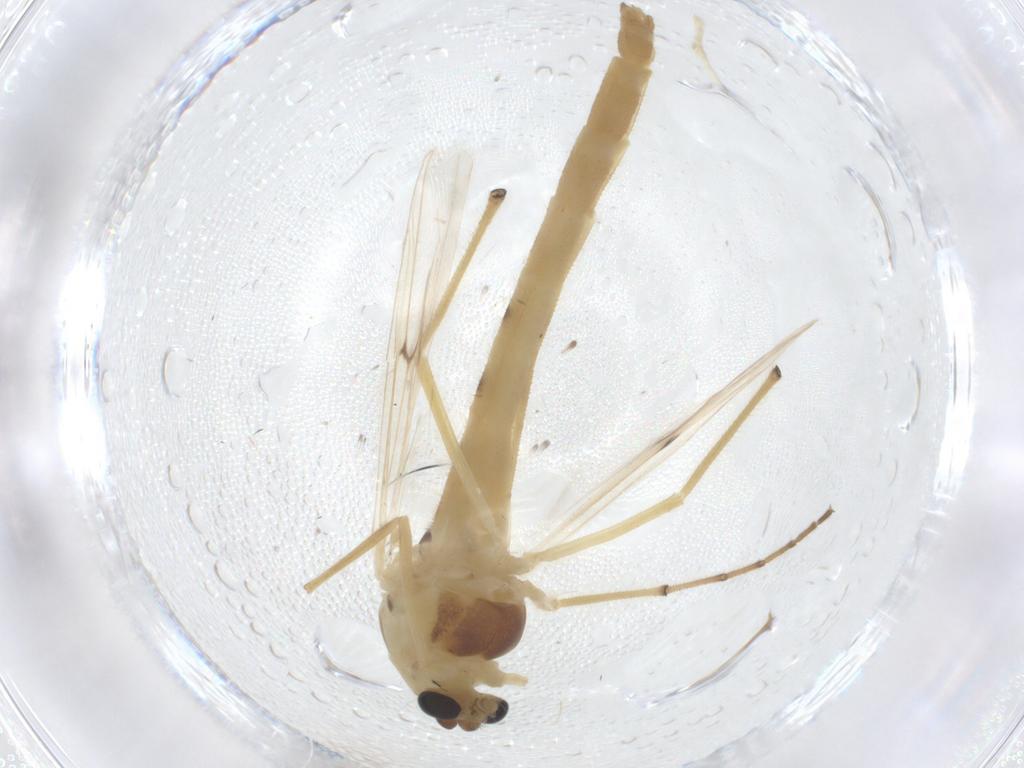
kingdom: Animalia
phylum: Arthropoda
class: Insecta
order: Diptera
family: Chironomidae
